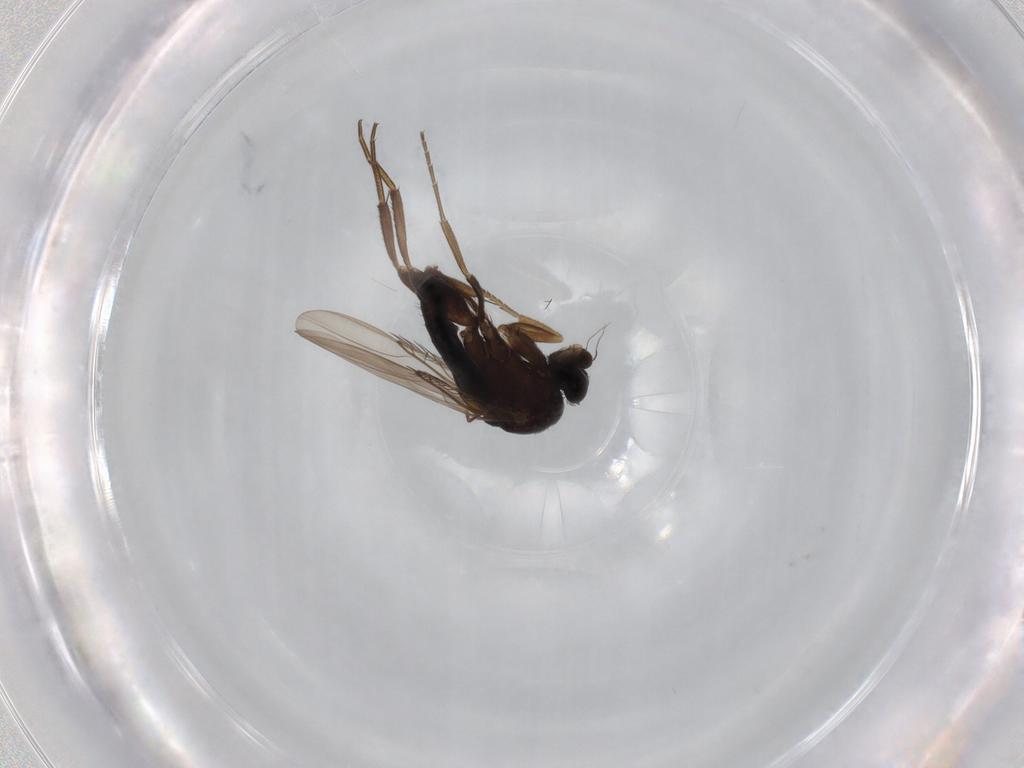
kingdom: Animalia
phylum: Arthropoda
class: Insecta
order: Diptera
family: Phoridae
